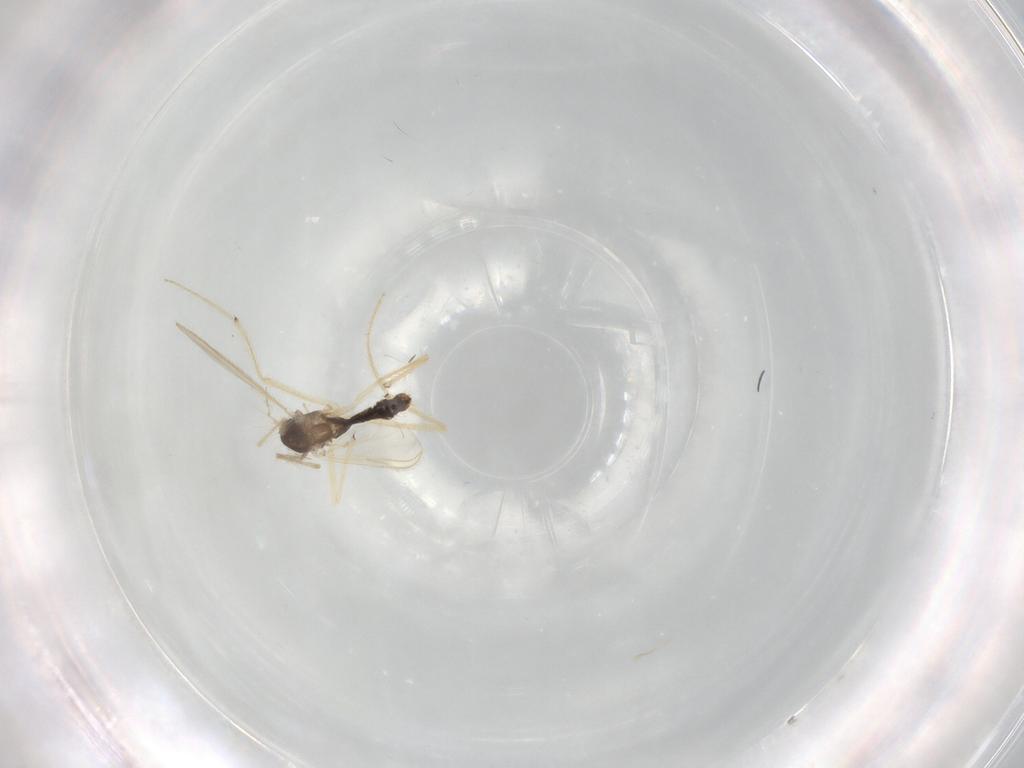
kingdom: Animalia
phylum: Arthropoda
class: Insecta
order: Diptera
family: Chironomidae
